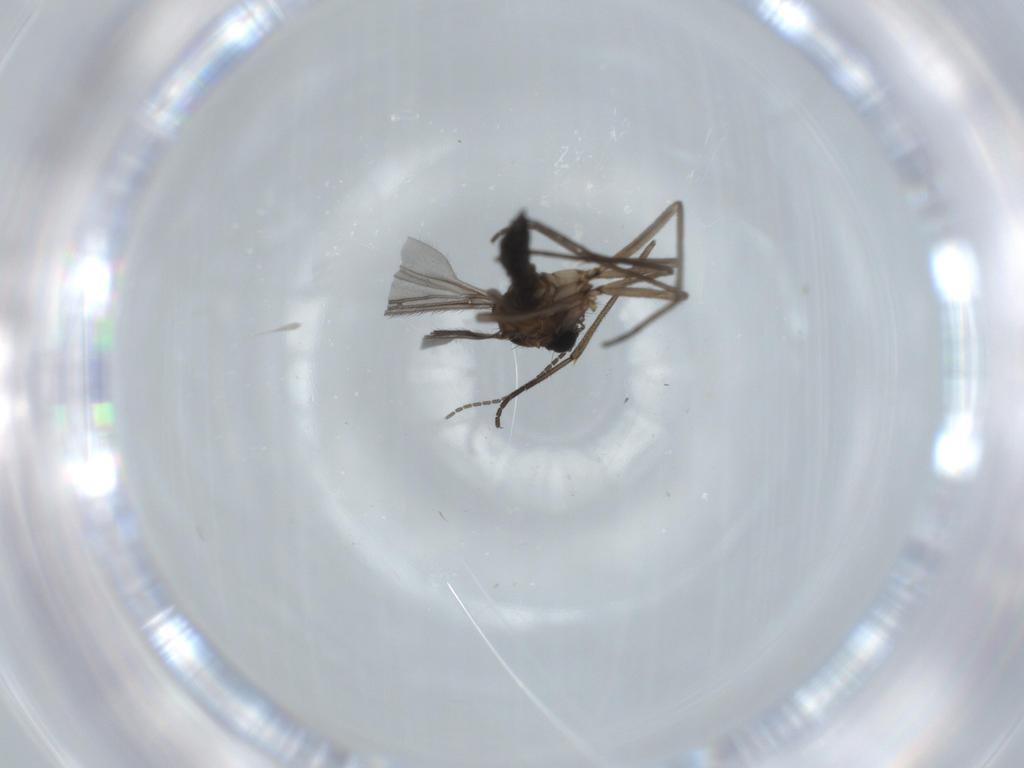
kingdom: Animalia
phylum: Arthropoda
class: Insecta
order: Diptera
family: Sciaridae
